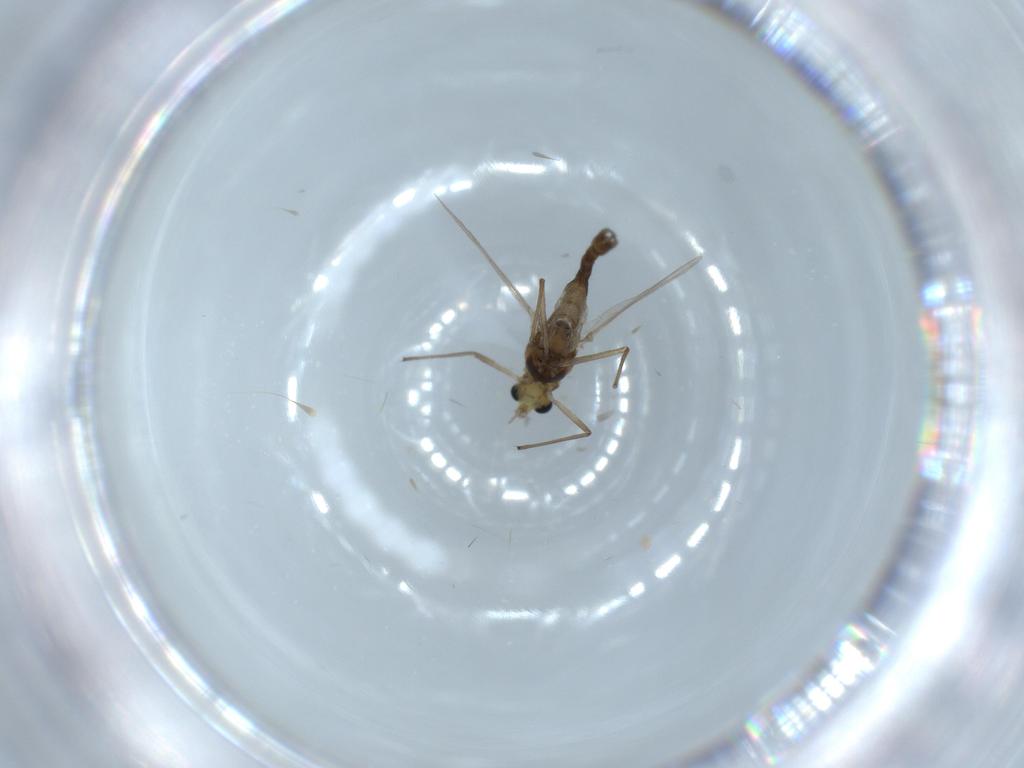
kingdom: Animalia
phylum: Arthropoda
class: Insecta
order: Diptera
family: Chironomidae
